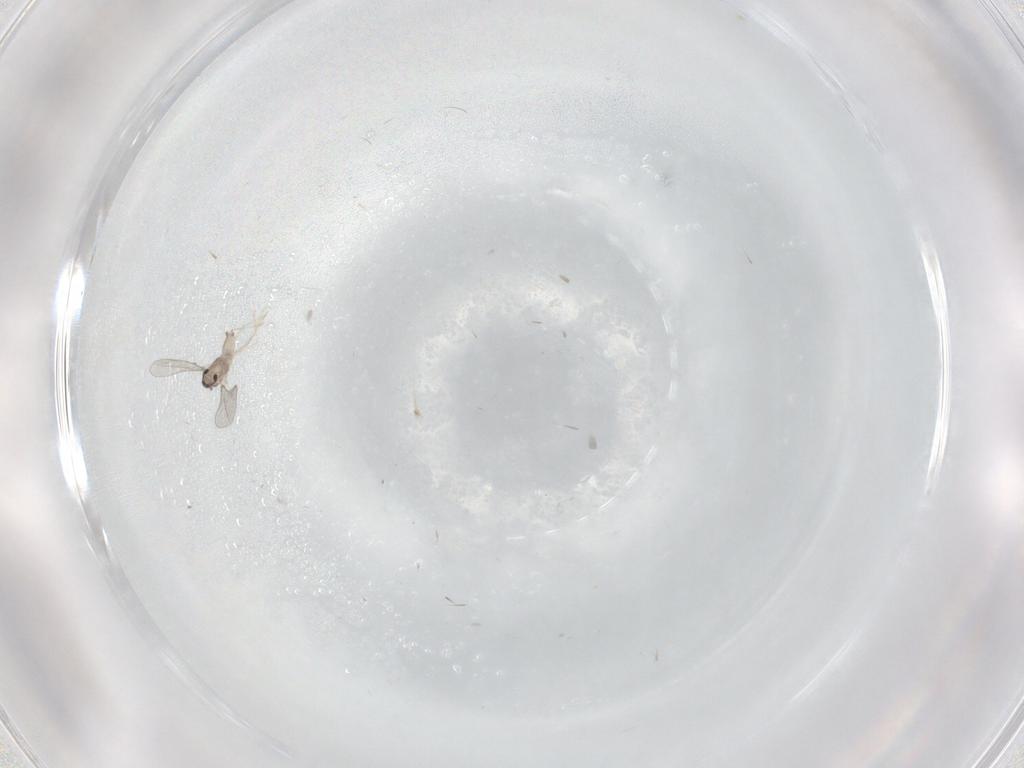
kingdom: Animalia
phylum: Arthropoda
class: Insecta
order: Diptera
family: Cecidomyiidae
